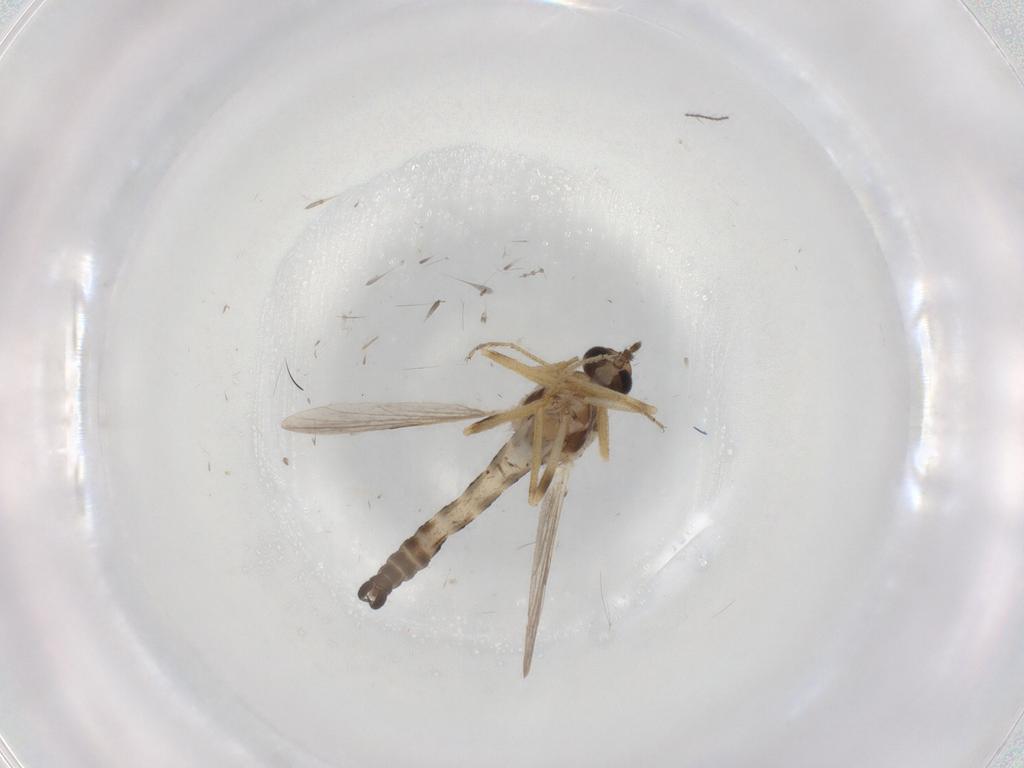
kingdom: Animalia
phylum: Arthropoda
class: Insecta
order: Diptera
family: Ceratopogonidae
